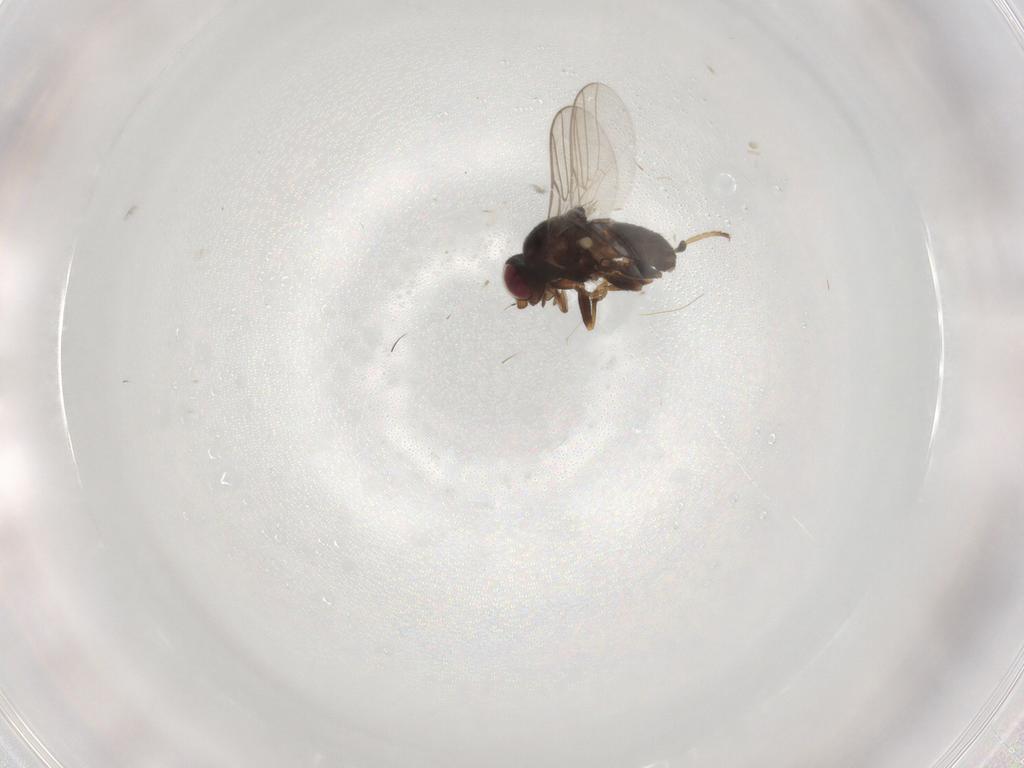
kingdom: Animalia
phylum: Arthropoda
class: Insecta
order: Diptera
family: Chloropidae
